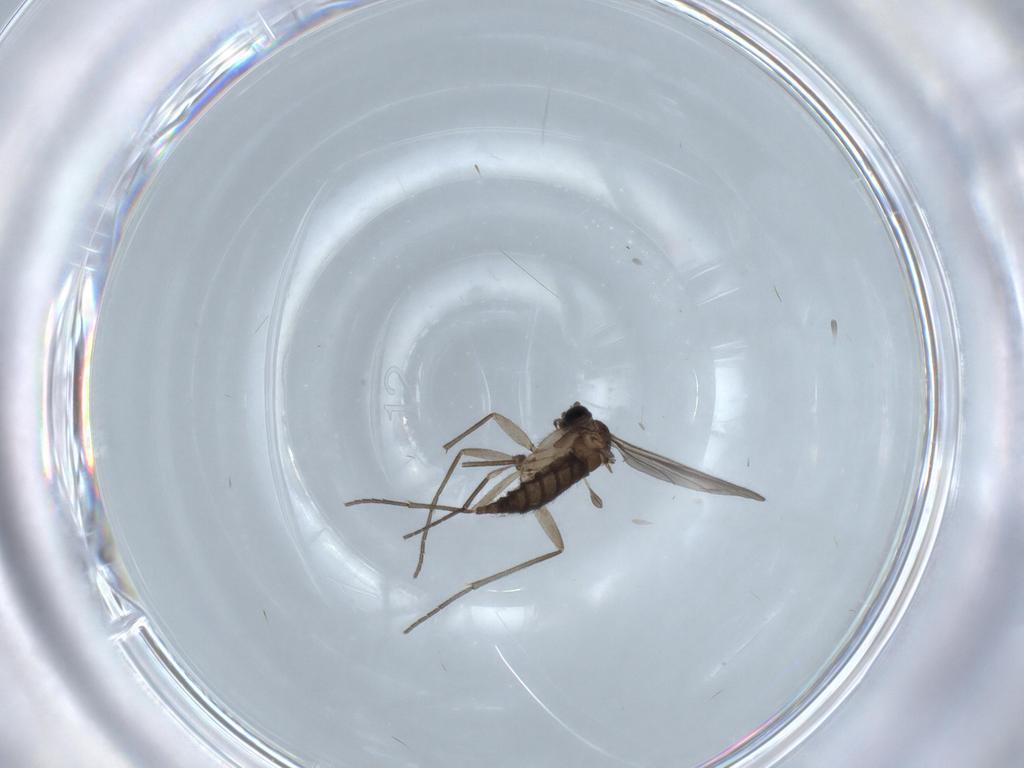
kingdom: Animalia
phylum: Arthropoda
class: Insecta
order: Diptera
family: Sciaridae
